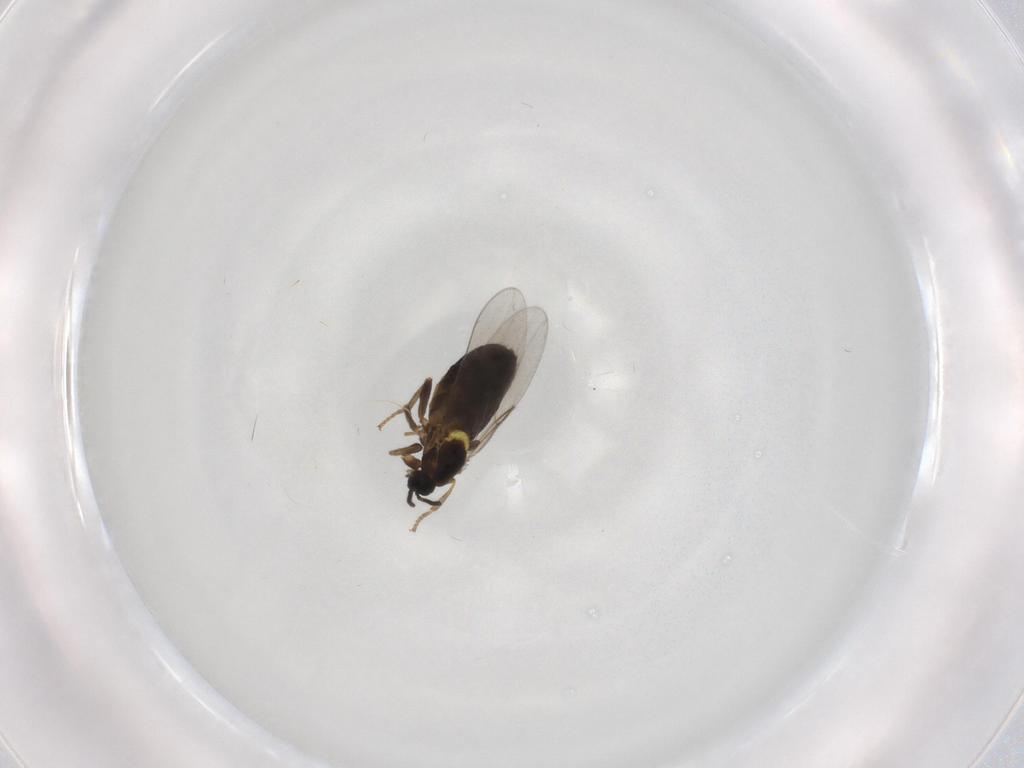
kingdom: Animalia
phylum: Arthropoda
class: Insecta
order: Diptera
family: Scatopsidae
